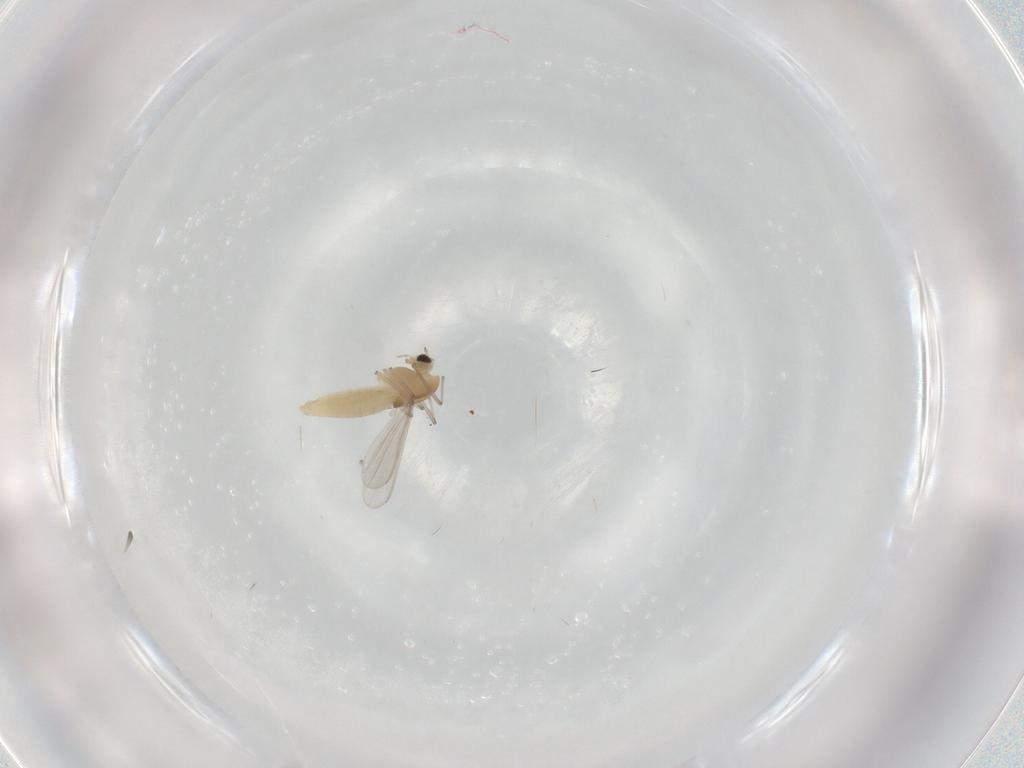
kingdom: Animalia
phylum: Arthropoda
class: Insecta
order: Diptera
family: Chironomidae
